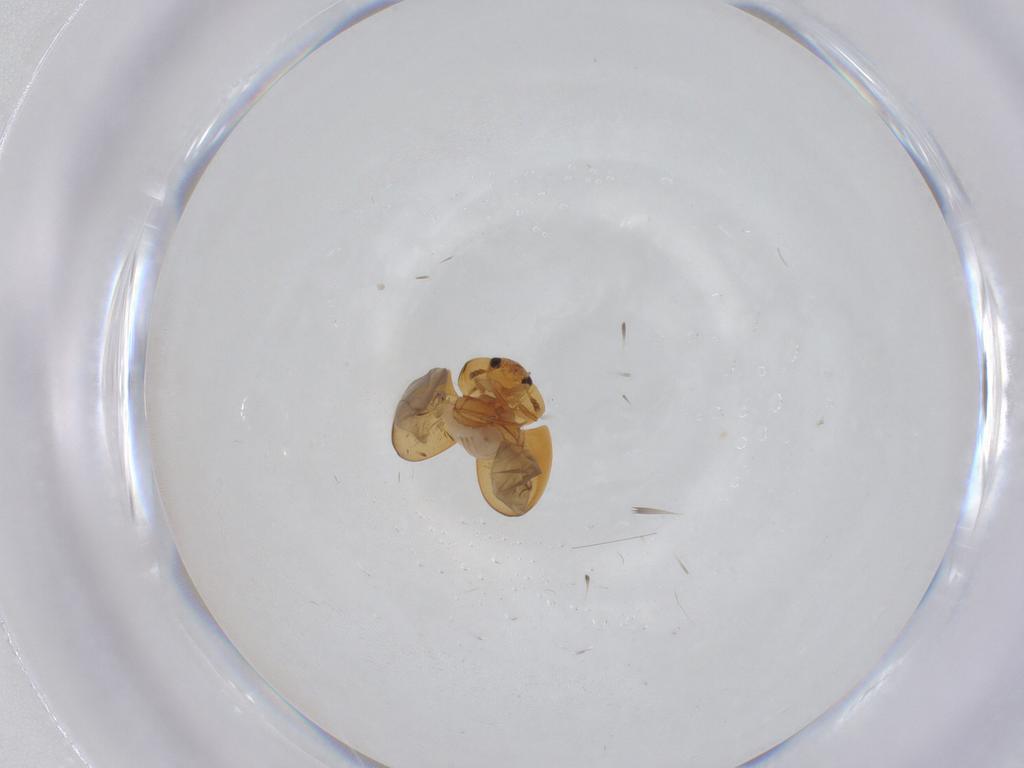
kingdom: Animalia
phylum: Arthropoda
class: Insecta
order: Coleoptera
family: Phalacridae
